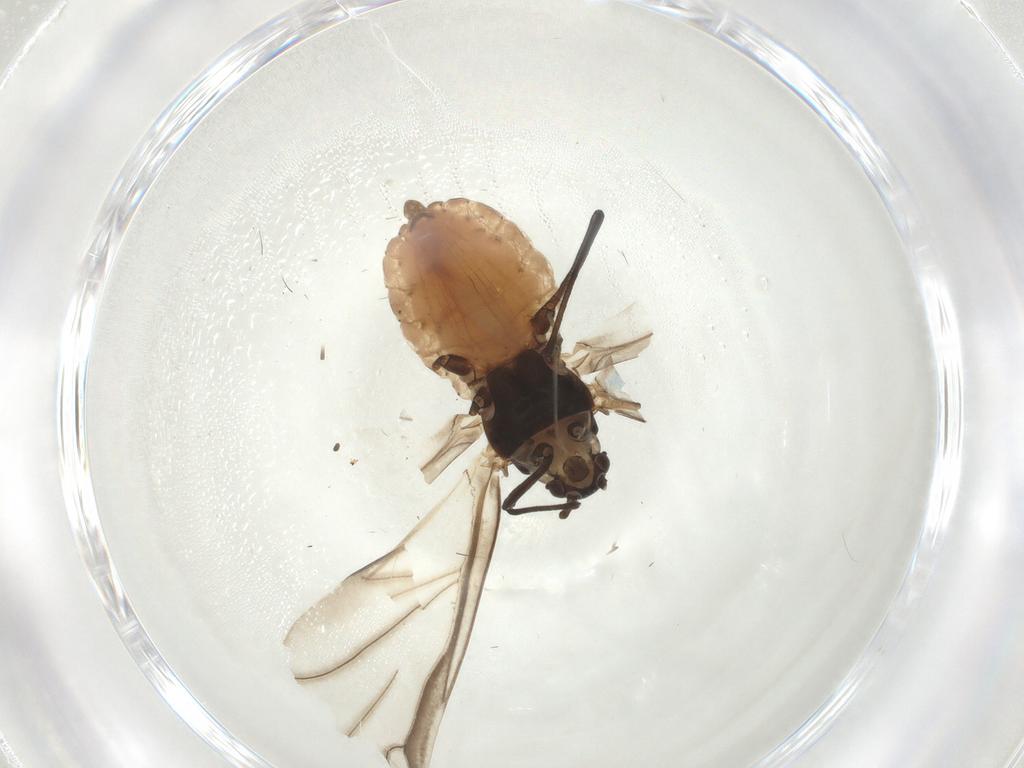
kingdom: Animalia
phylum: Arthropoda
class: Insecta
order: Hemiptera
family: Aphididae
